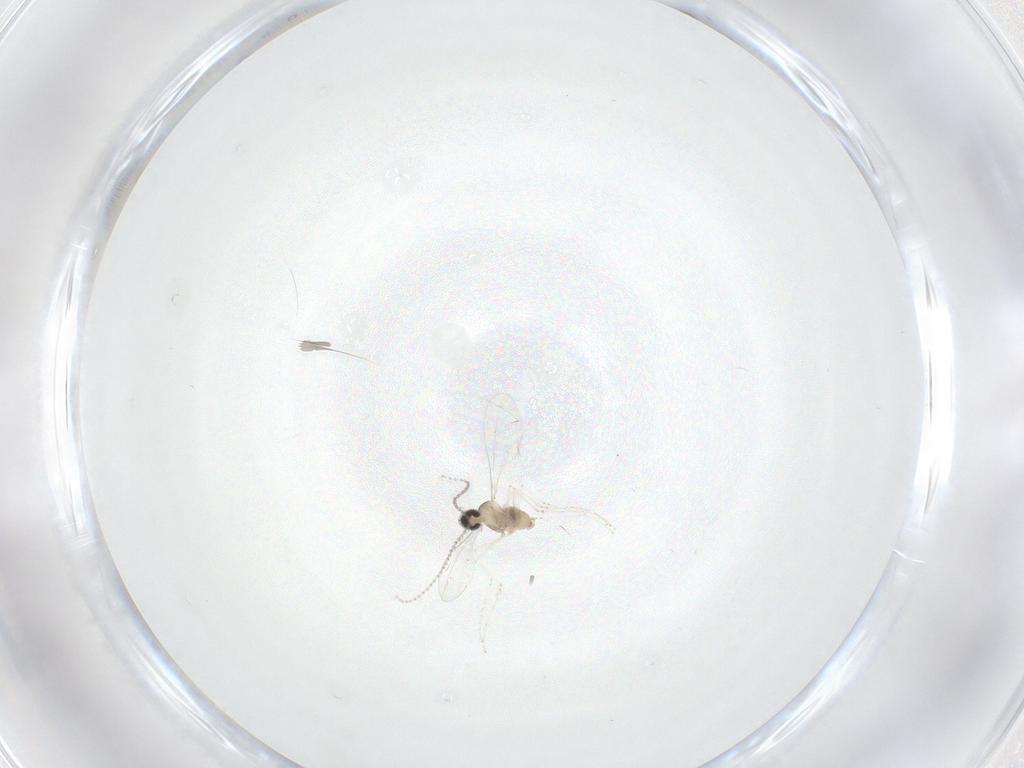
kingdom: Animalia
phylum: Arthropoda
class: Insecta
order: Diptera
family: Cecidomyiidae
